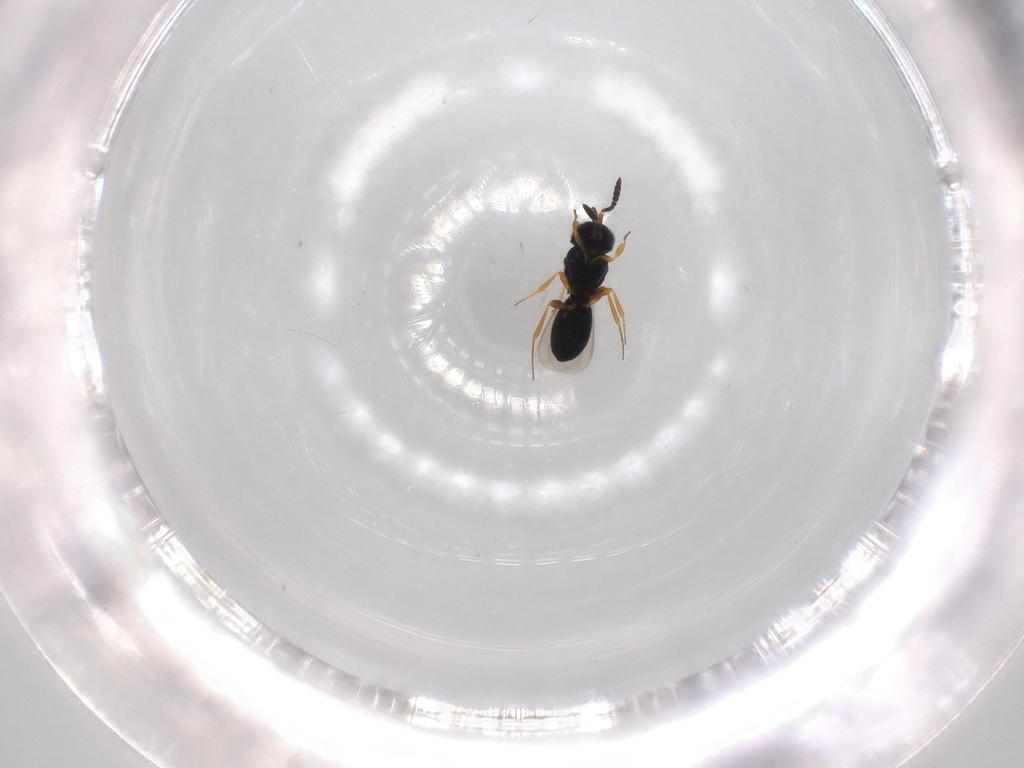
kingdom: Animalia
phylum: Arthropoda
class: Insecta
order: Hymenoptera
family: Scelionidae
